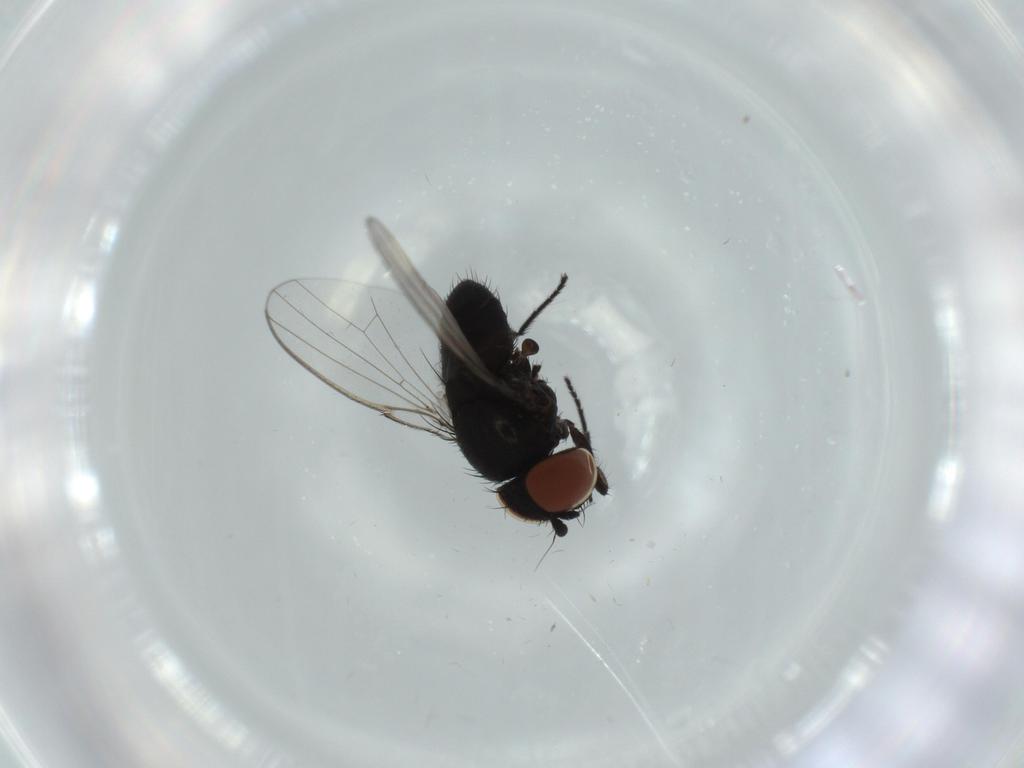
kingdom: Animalia
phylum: Arthropoda
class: Insecta
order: Diptera
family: Milichiidae
